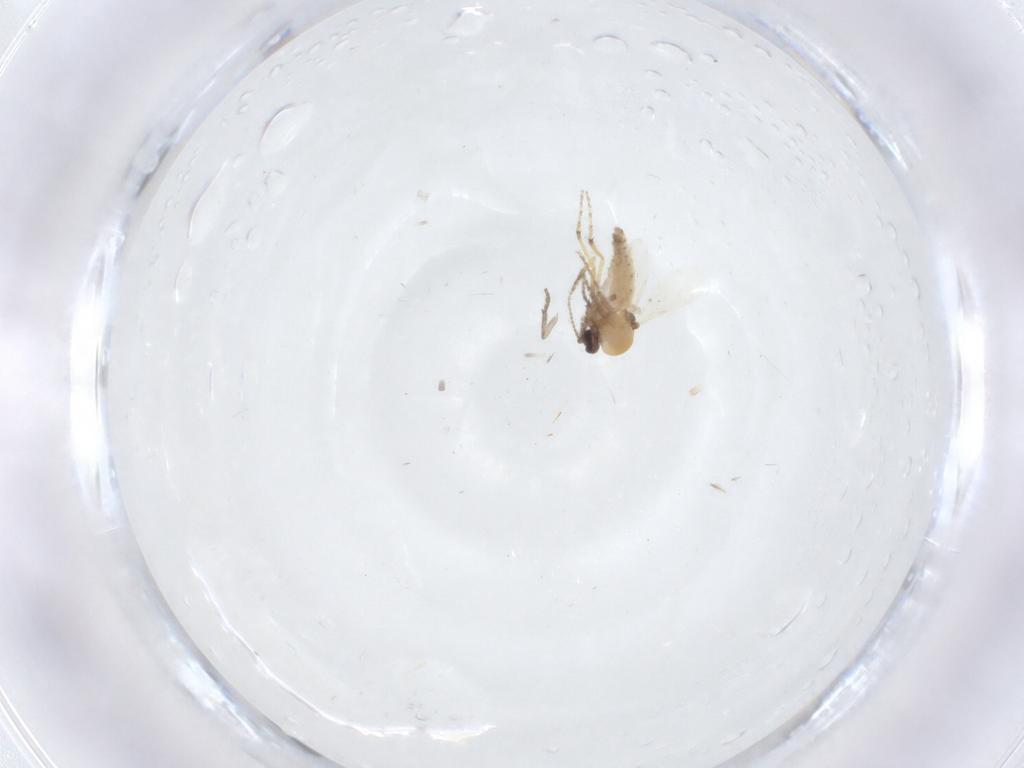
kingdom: Animalia
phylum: Arthropoda
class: Insecta
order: Diptera
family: Ceratopogonidae
